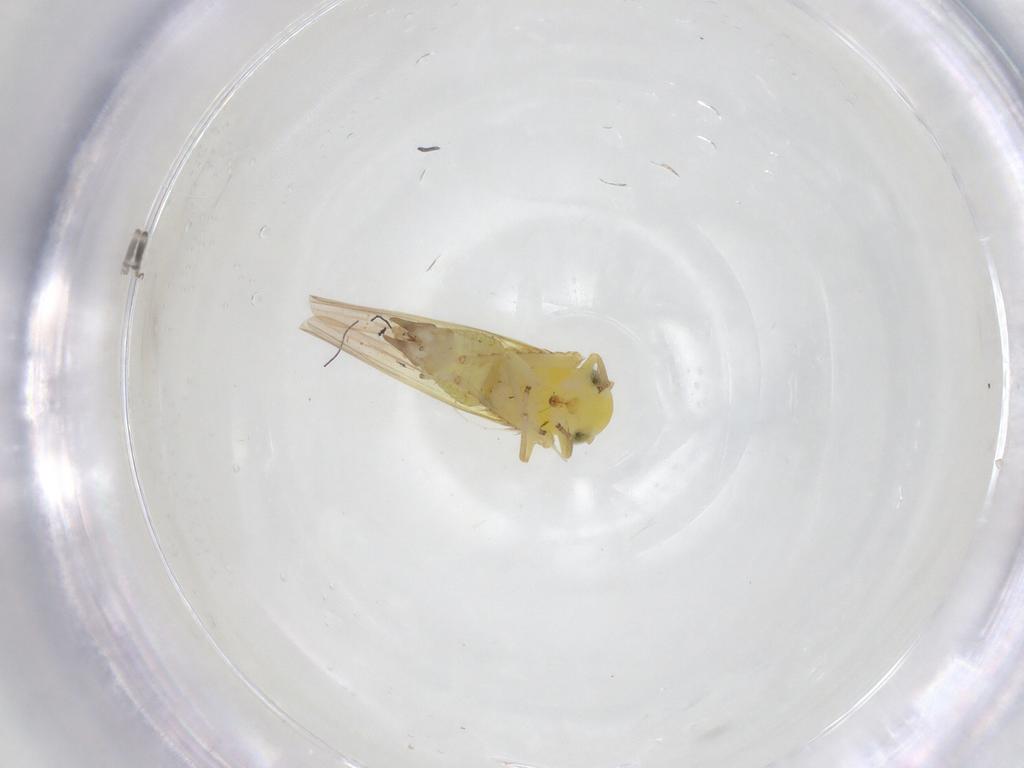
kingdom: Animalia
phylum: Arthropoda
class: Insecta
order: Hemiptera
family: Cicadellidae
